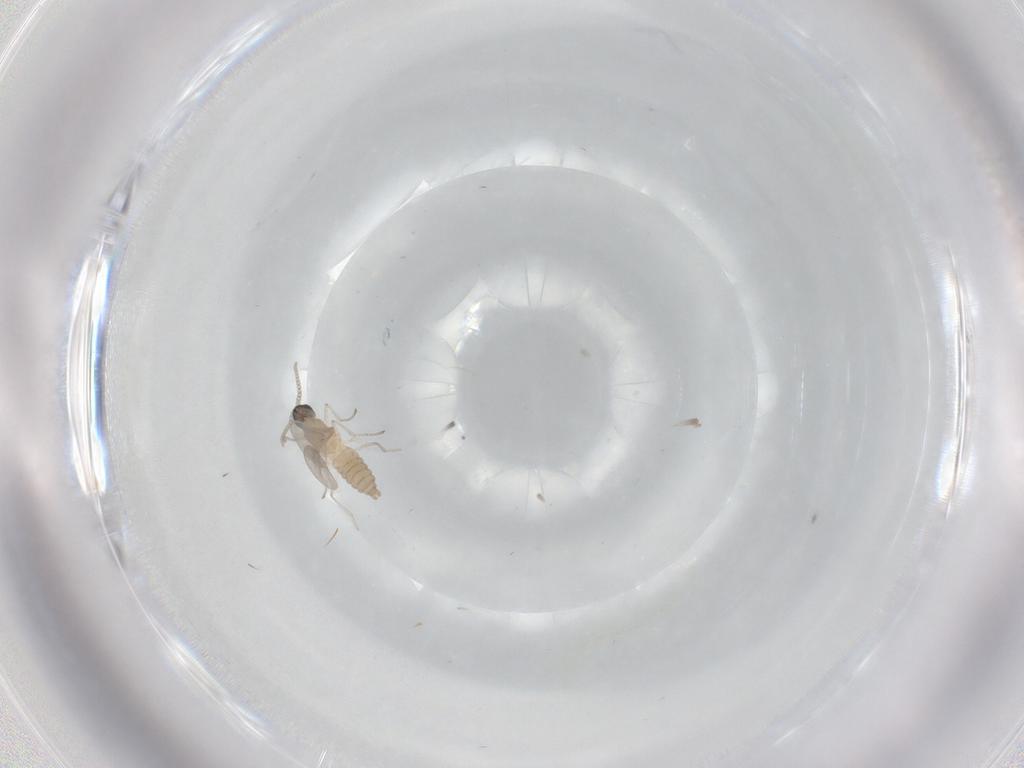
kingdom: Animalia
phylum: Arthropoda
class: Insecta
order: Diptera
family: Cecidomyiidae
